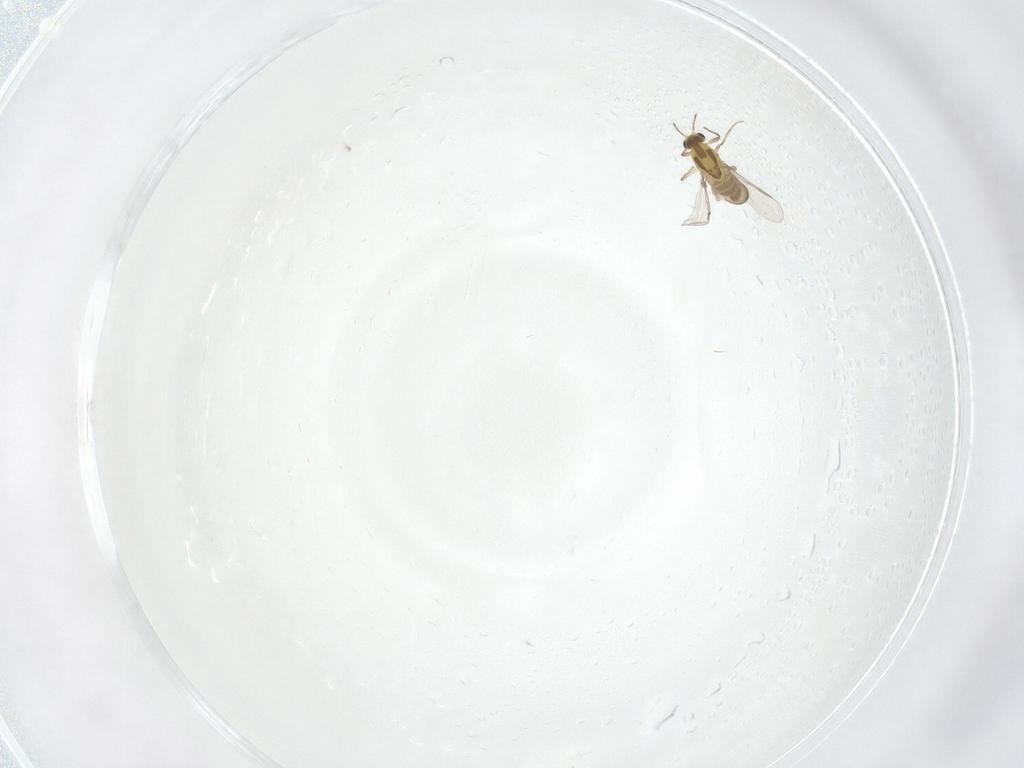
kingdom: Animalia
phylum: Arthropoda
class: Insecta
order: Diptera
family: Chironomidae
